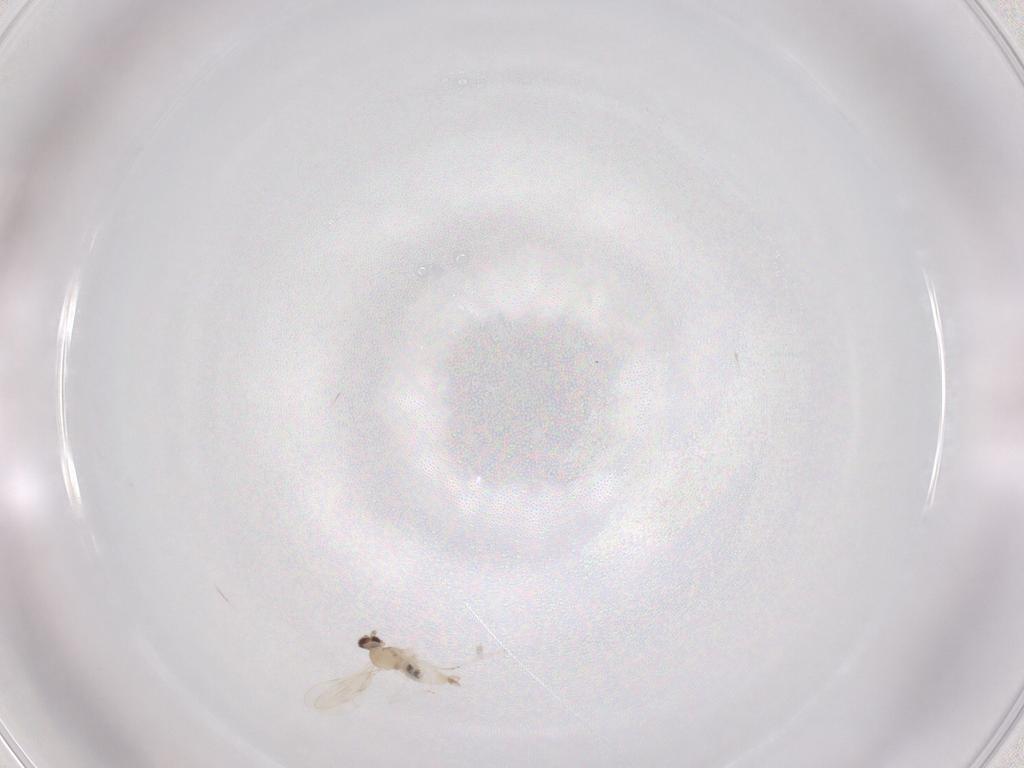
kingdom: Animalia
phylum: Arthropoda
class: Insecta
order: Diptera
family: Cecidomyiidae
